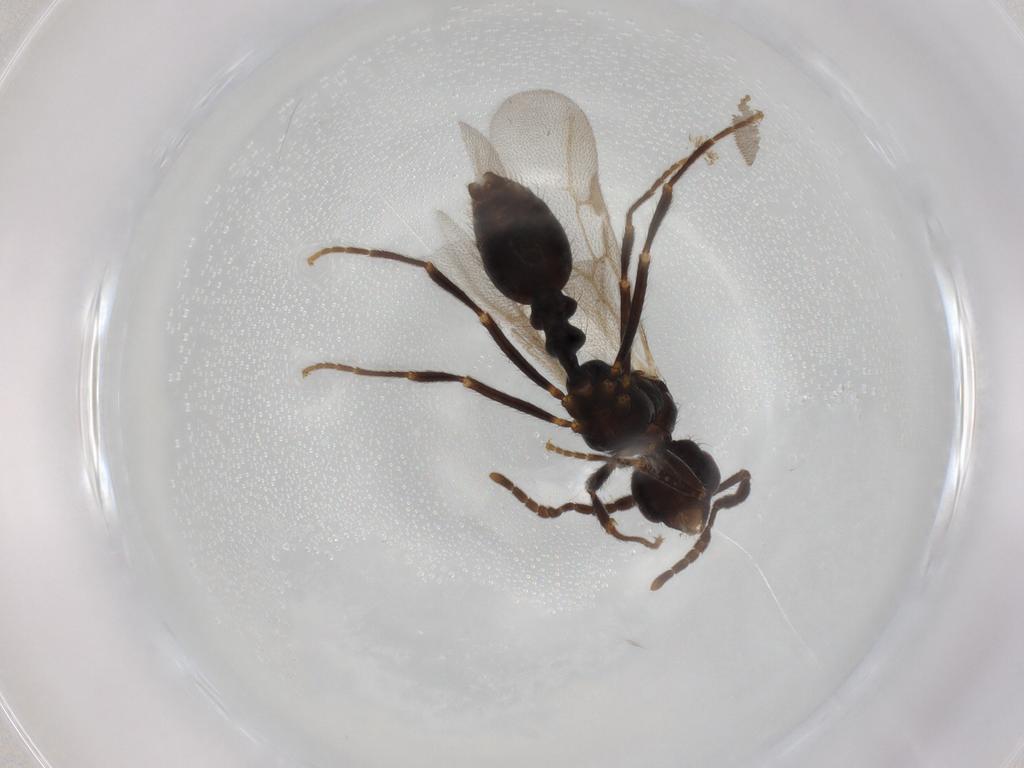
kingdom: Animalia
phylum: Arthropoda
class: Insecta
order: Hymenoptera
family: Formicidae
